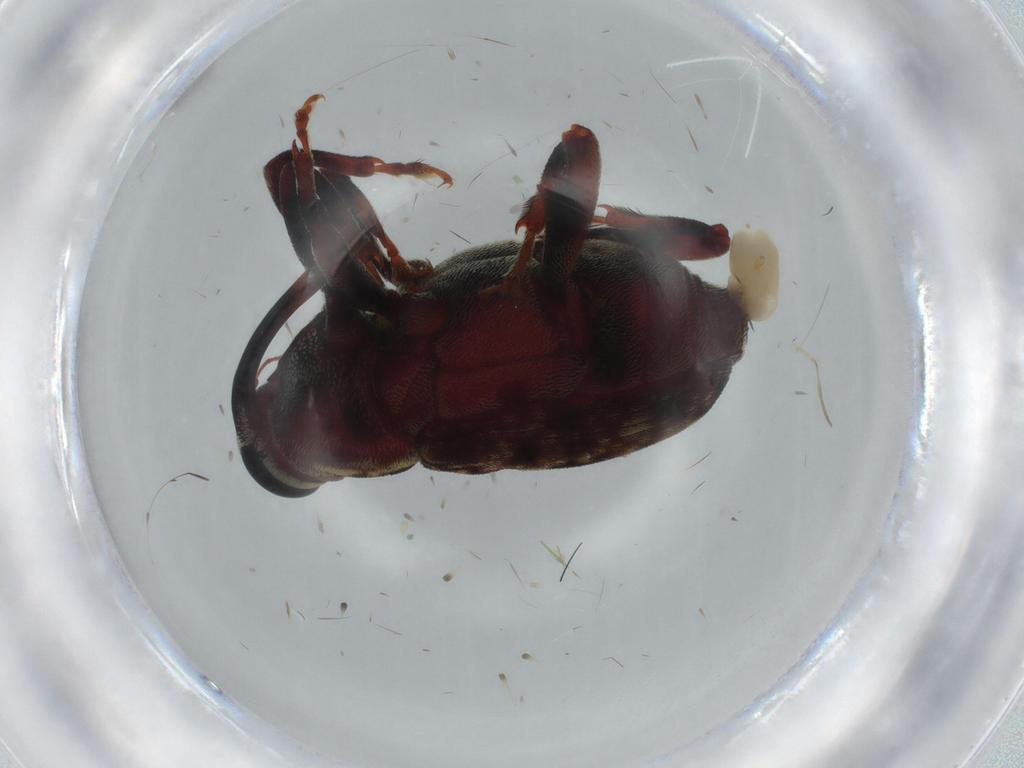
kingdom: Animalia
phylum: Arthropoda
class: Insecta
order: Coleoptera
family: Curculionidae
